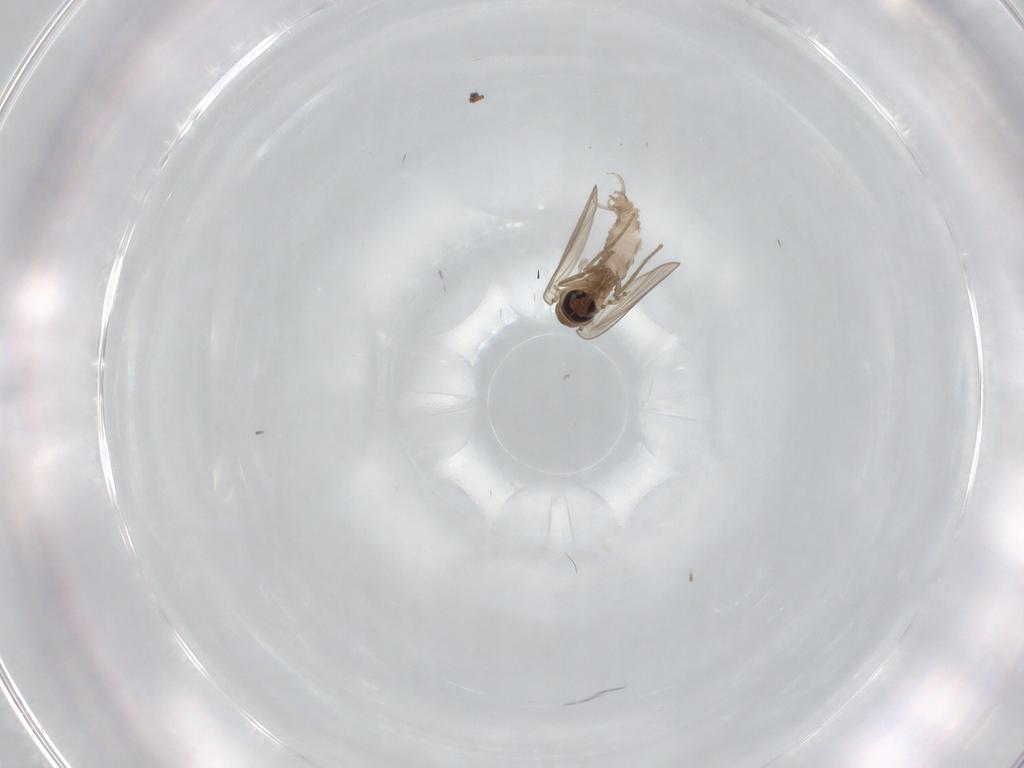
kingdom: Animalia
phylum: Arthropoda
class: Insecta
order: Diptera
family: Psychodidae
